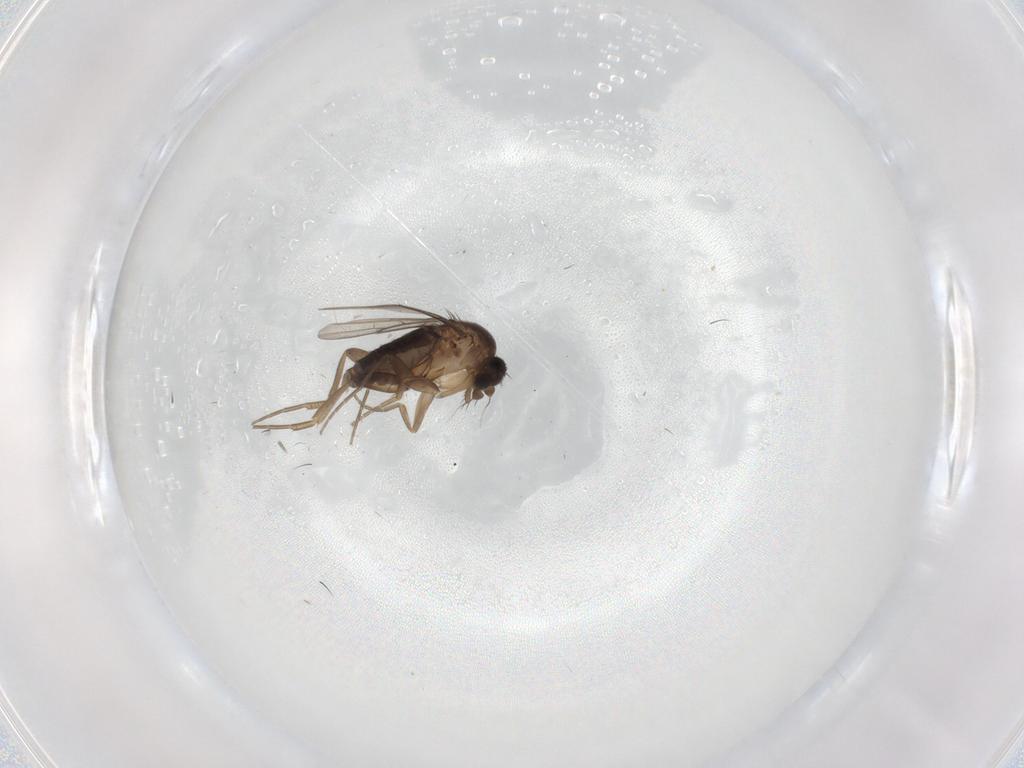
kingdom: Animalia
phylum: Arthropoda
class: Insecta
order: Diptera
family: Phoridae
